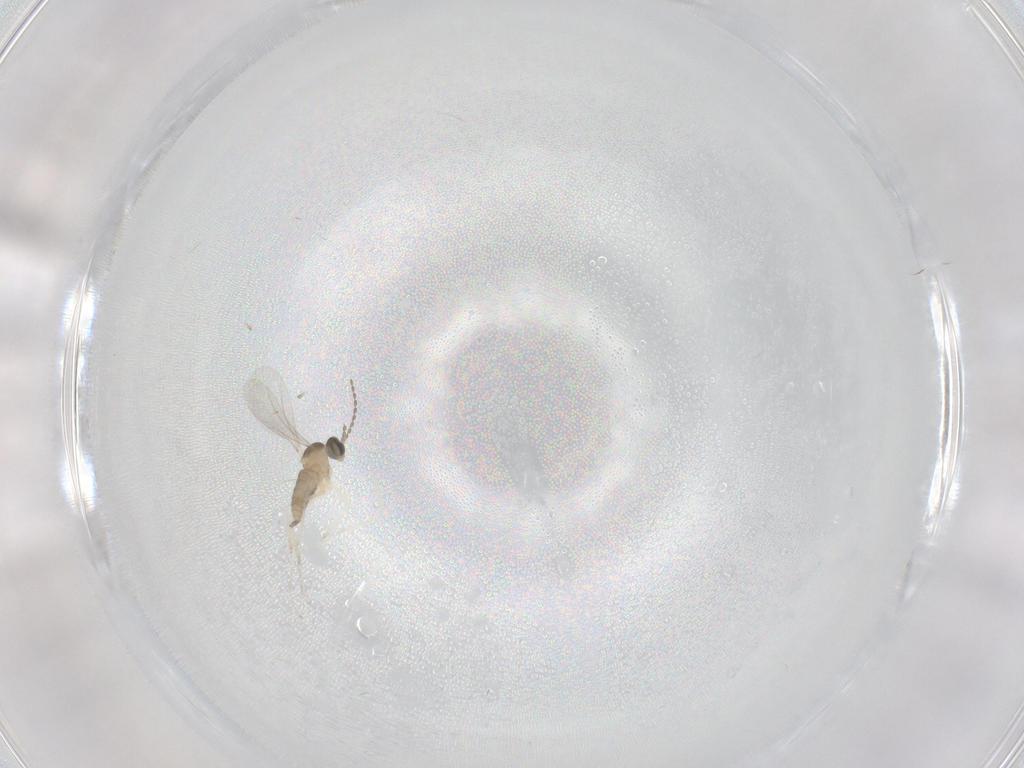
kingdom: Animalia
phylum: Arthropoda
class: Insecta
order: Diptera
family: Cecidomyiidae
